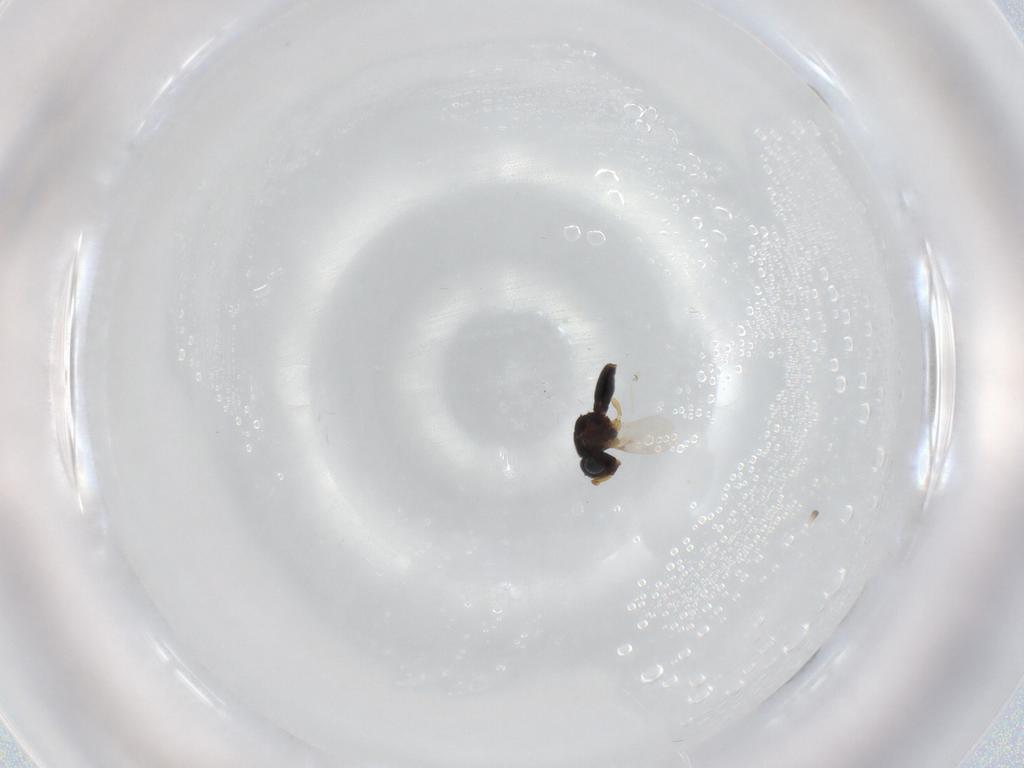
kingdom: Animalia
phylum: Arthropoda
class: Insecta
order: Hymenoptera
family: Scelionidae
